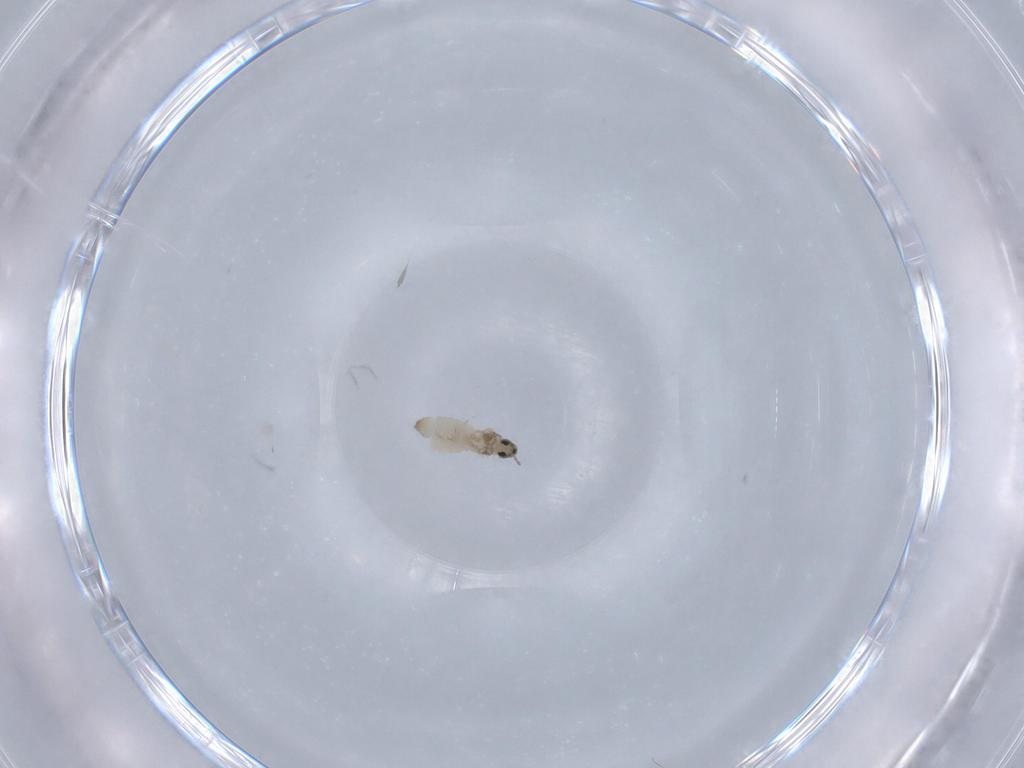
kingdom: Animalia
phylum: Arthropoda
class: Insecta
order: Diptera
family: Cecidomyiidae
